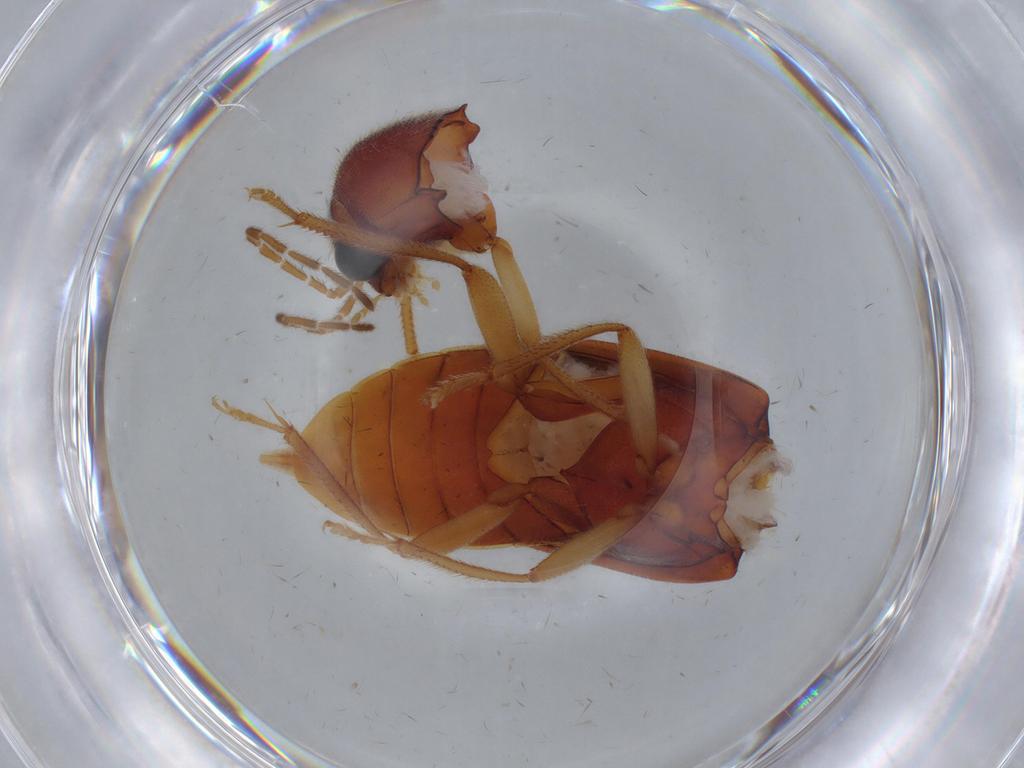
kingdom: Animalia
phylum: Arthropoda
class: Insecta
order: Coleoptera
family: Ptilodactylidae
